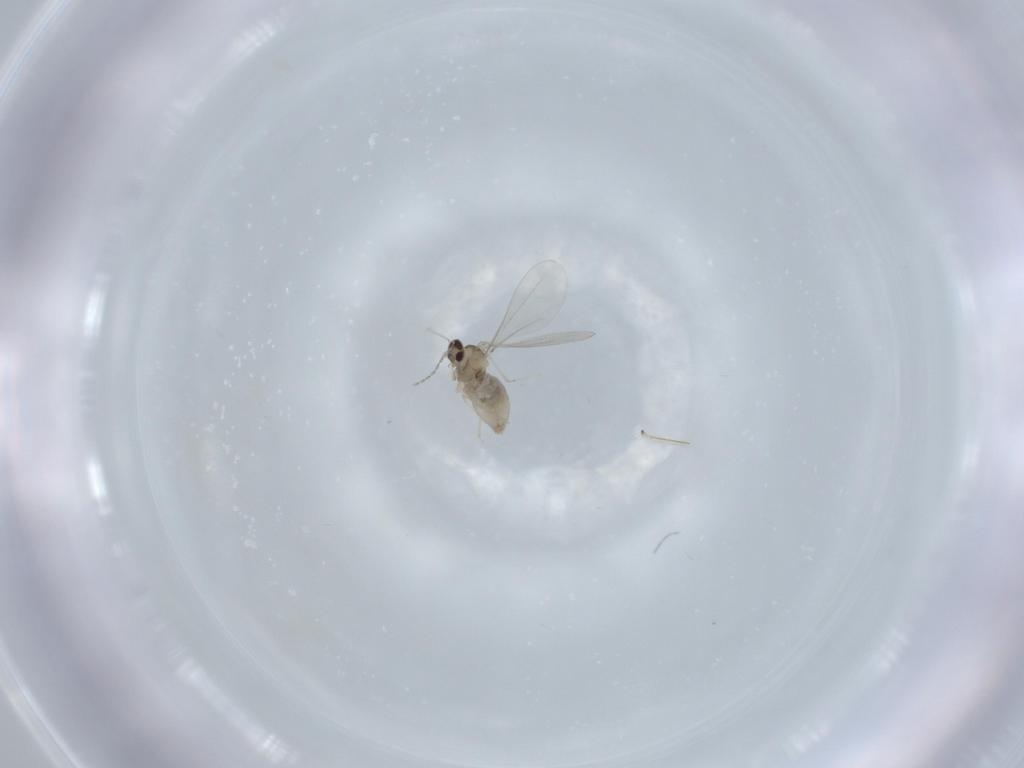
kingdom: Animalia
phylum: Arthropoda
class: Insecta
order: Diptera
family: Cecidomyiidae
